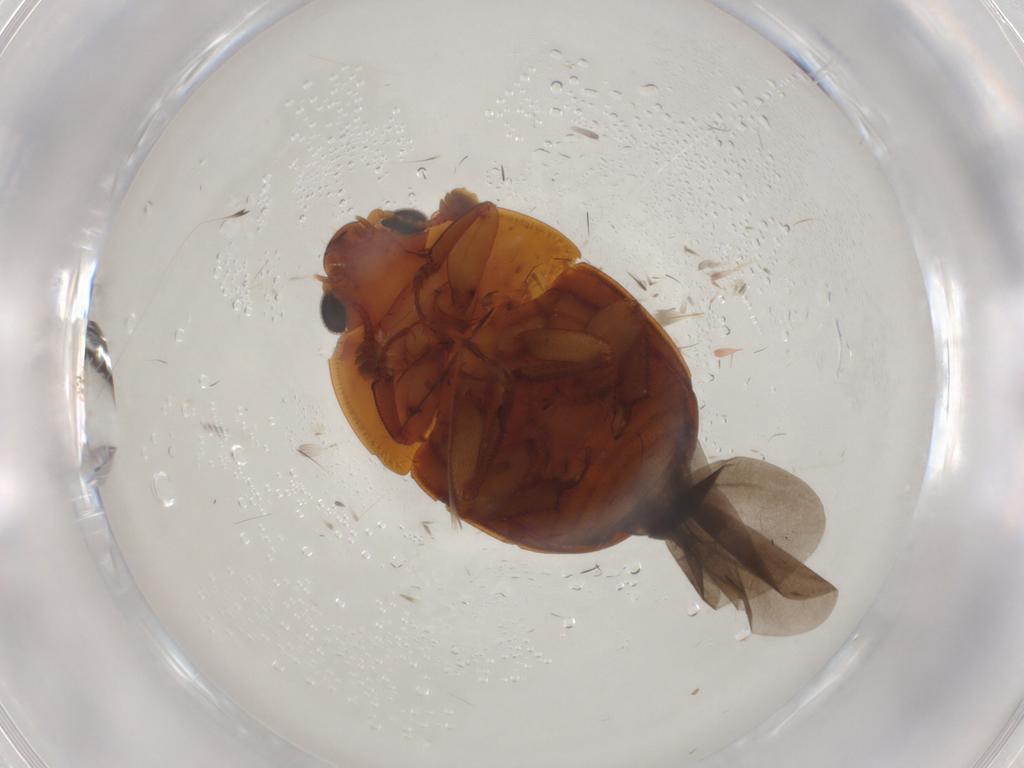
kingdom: Animalia
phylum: Arthropoda
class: Insecta
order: Coleoptera
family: Nitidulidae
